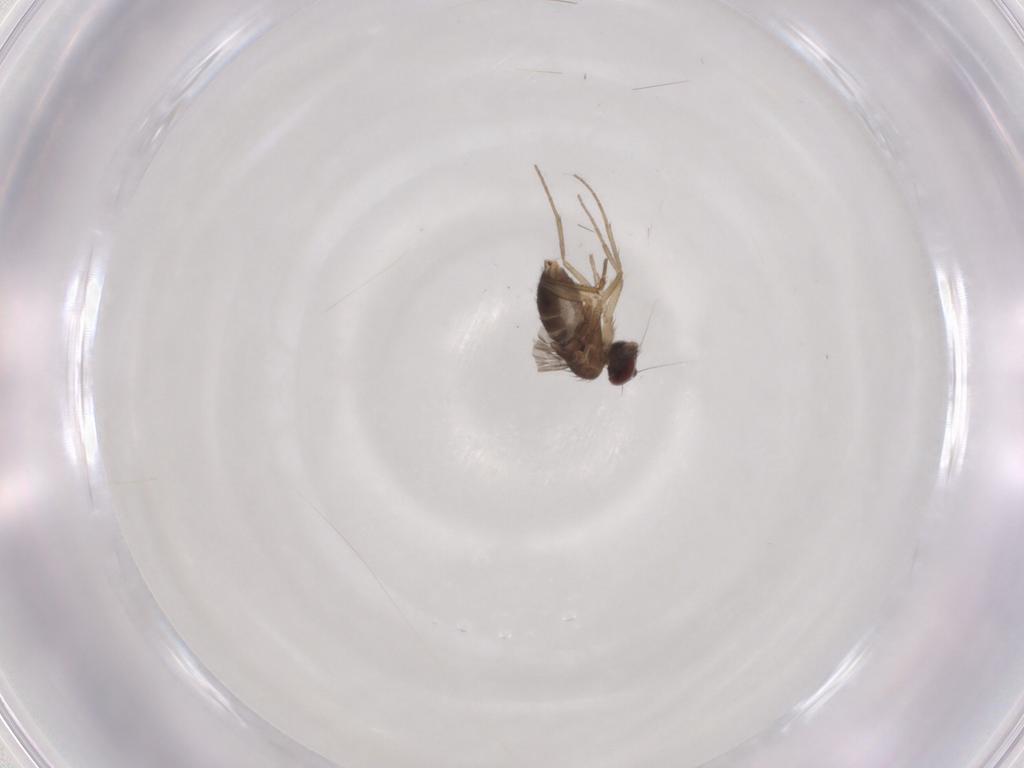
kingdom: Animalia
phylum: Arthropoda
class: Insecta
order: Diptera
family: Dolichopodidae
